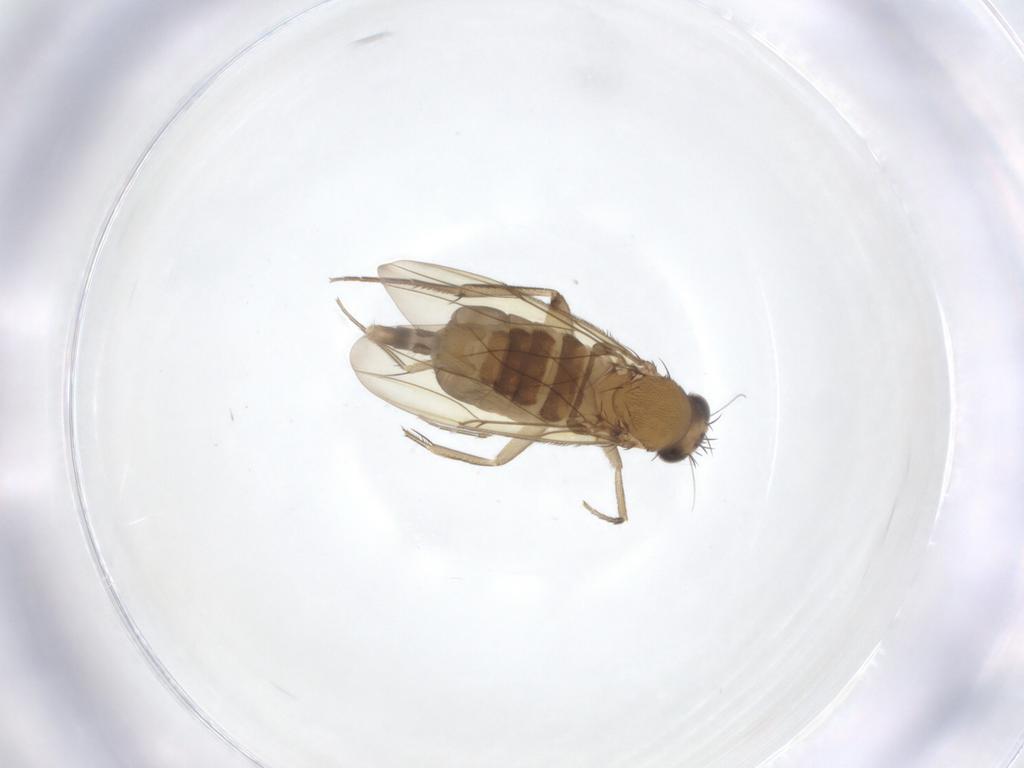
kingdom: Animalia
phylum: Arthropoda
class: Insecta
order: Diptera
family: Phoridae
